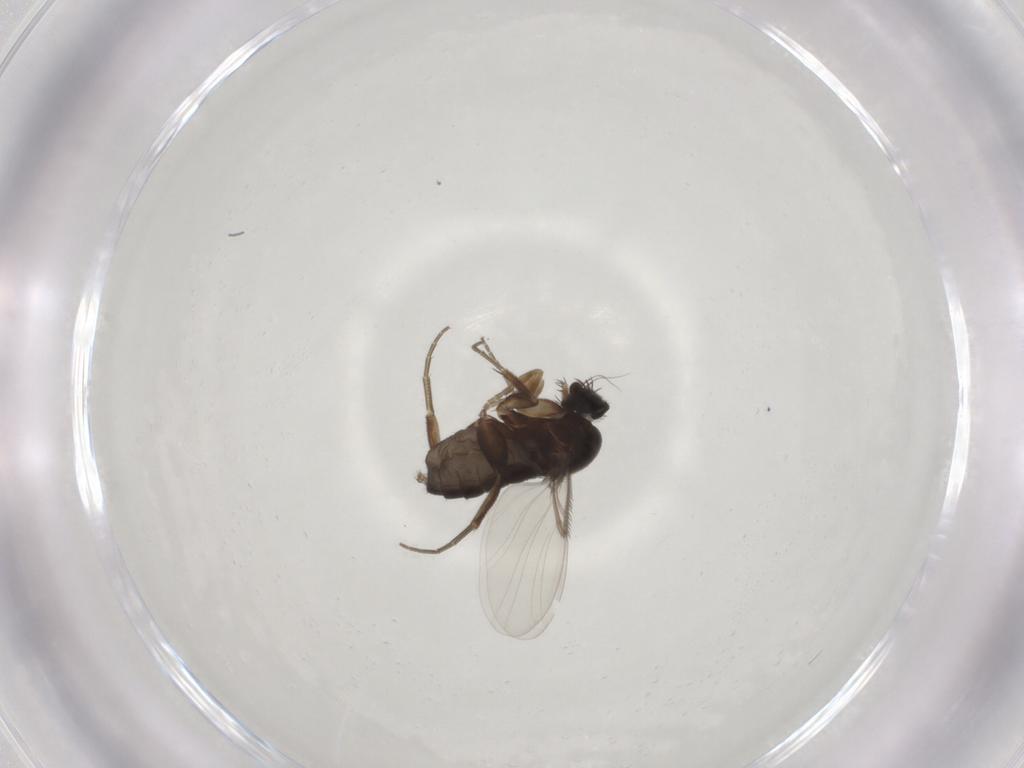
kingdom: Animalia
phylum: Arthropoda
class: Insecta
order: Diptera
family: Phoridae
